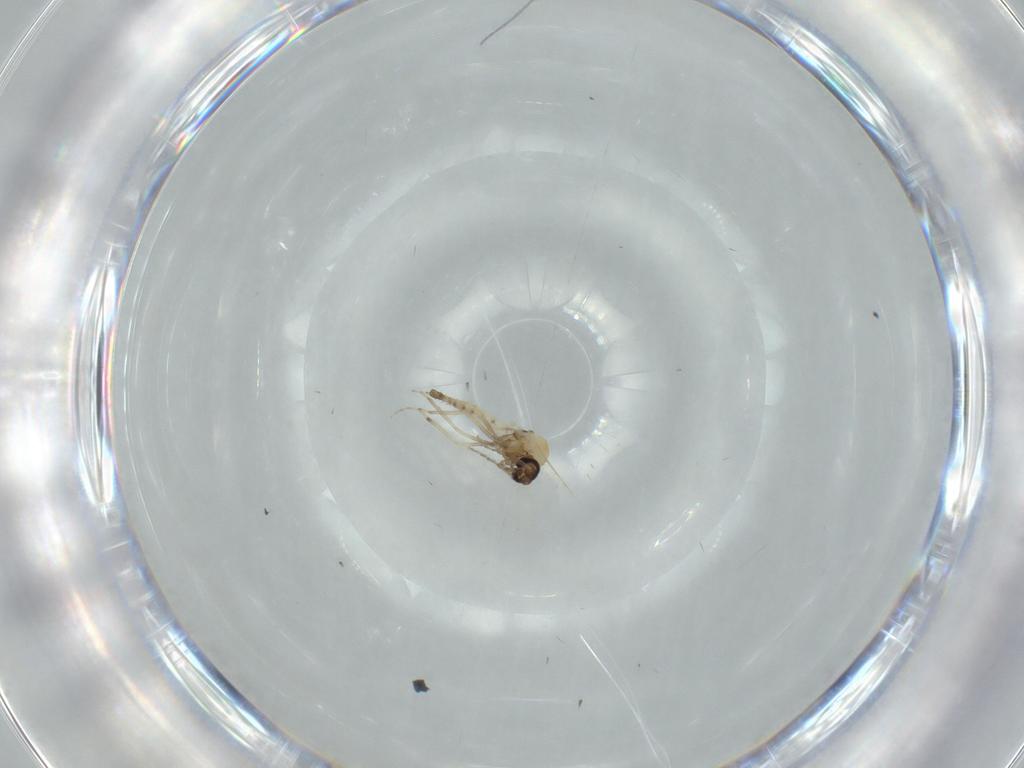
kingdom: Animalia
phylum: Arthropoda
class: Insecta
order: Diptera
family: Ceratopogonidae
